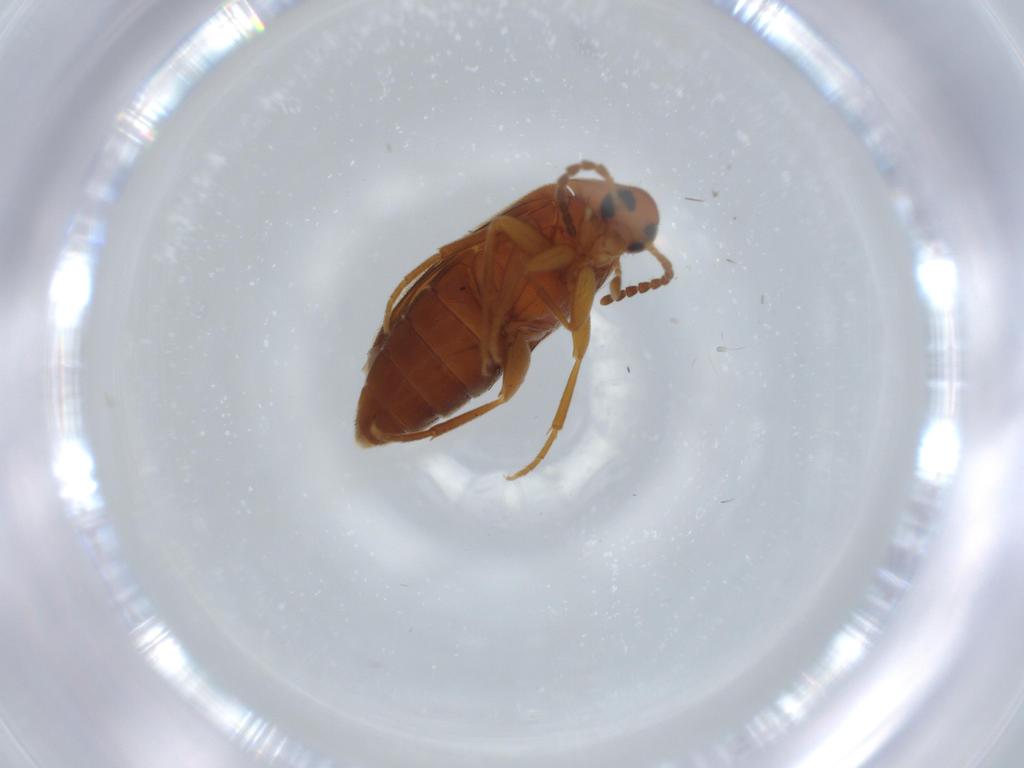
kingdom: Animalia
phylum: Arthropoda
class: Insecta
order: Coleoptera
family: Scraptiidae
